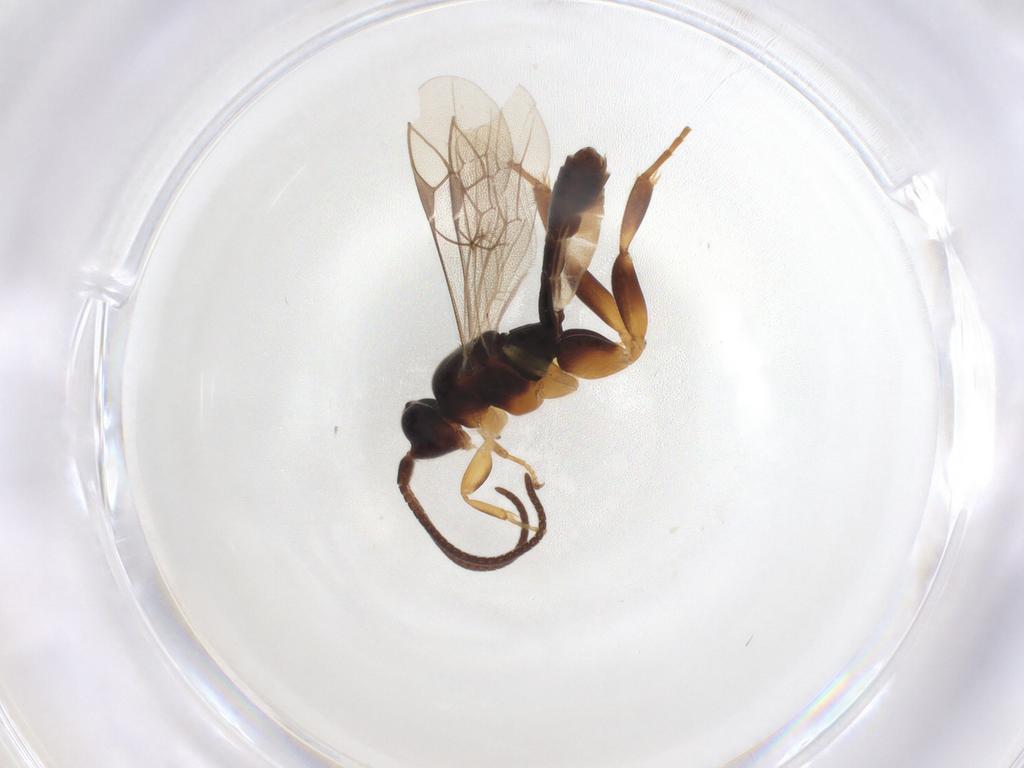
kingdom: Animalia
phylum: Arthropoda
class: Insecta
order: Hymenoptera
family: Ichneumonidae
